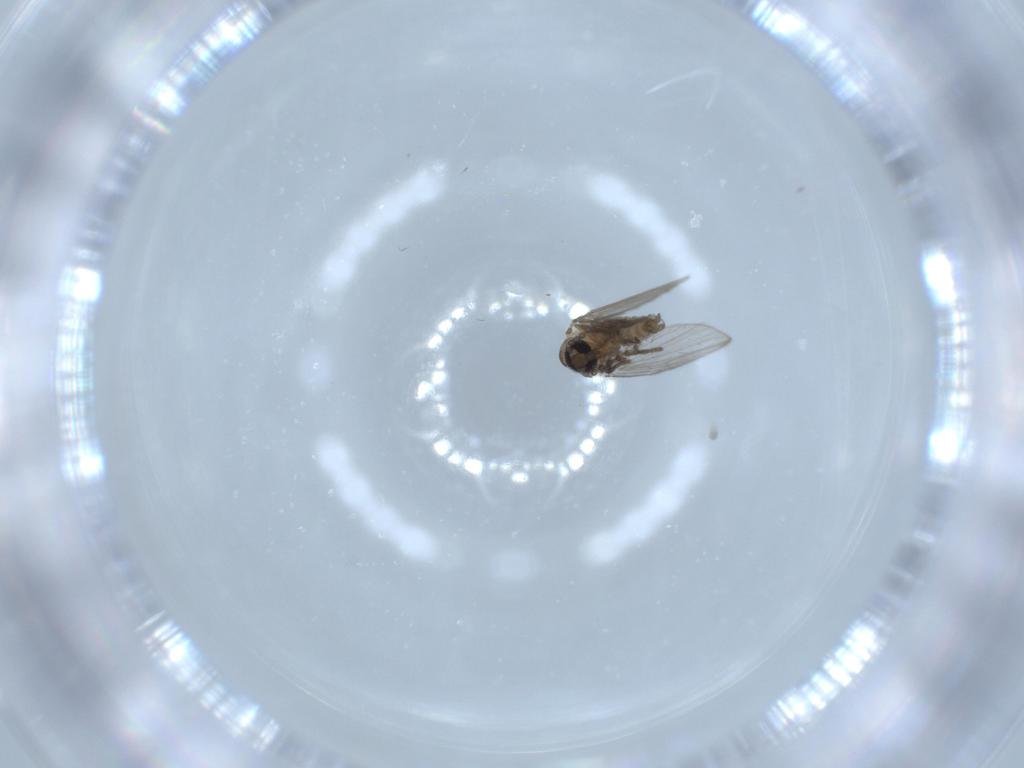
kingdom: Animalia
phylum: Arthropoda
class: Insecta
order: Diptera
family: Psychodidae
